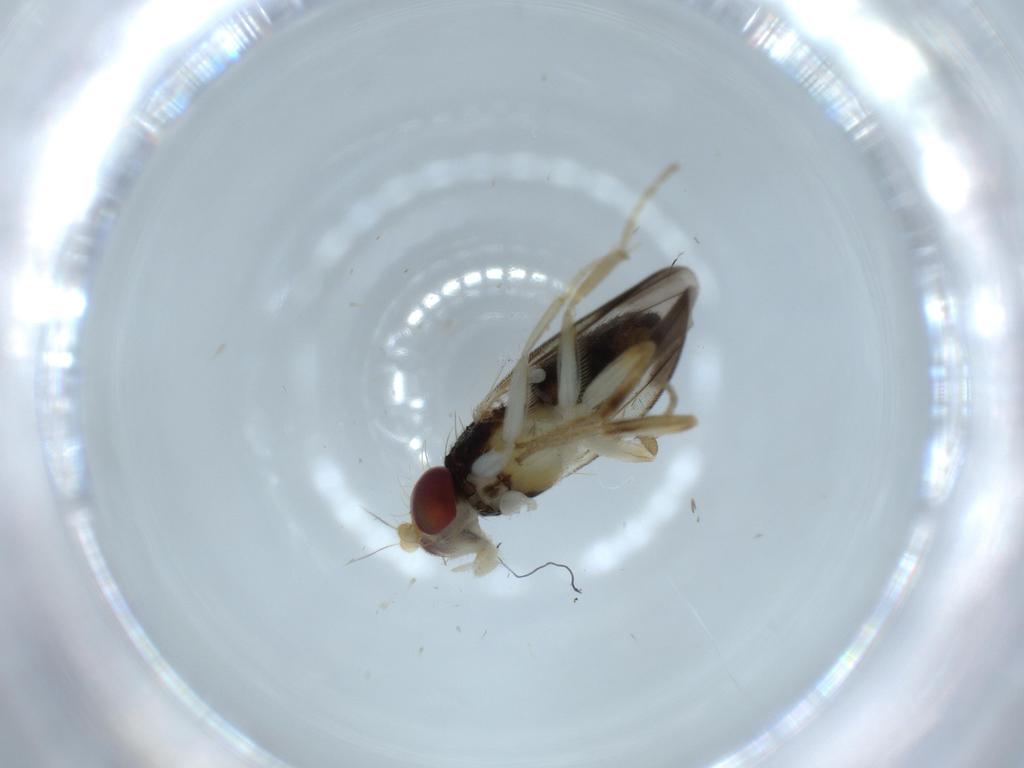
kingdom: Animalia
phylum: Arthropoda
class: Insecta
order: Diptera
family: Clusiidae
